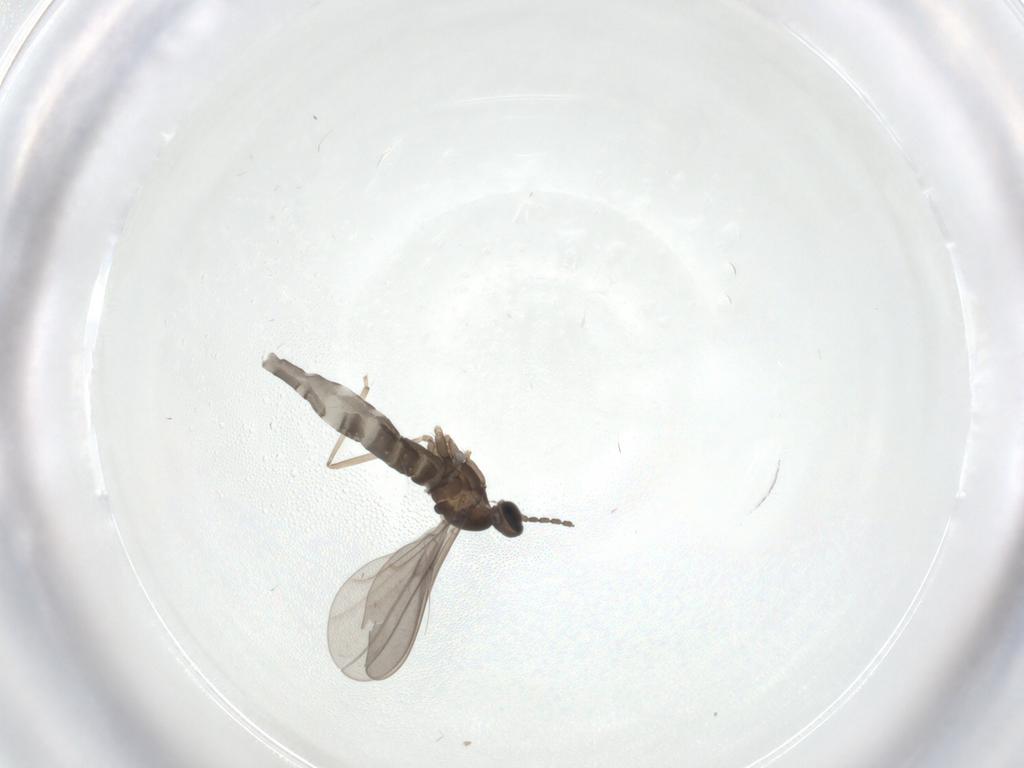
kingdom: Animalia
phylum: Arthropoda
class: Insecta
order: Diptera
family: Cecidomyiidae
